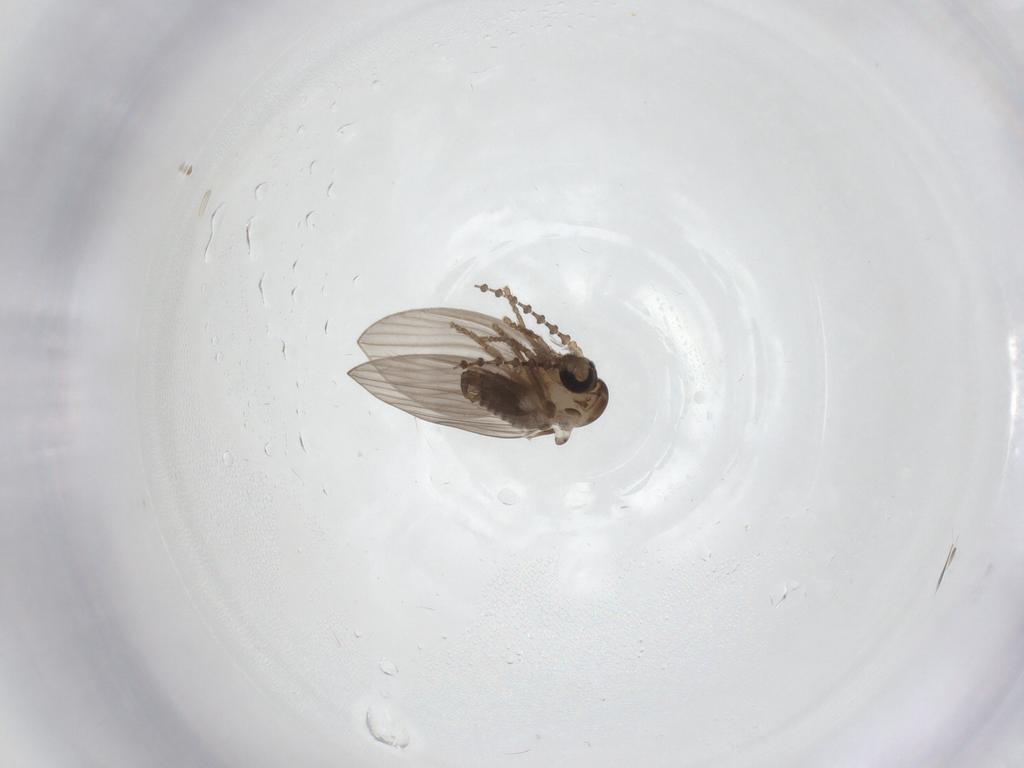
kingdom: Animalia
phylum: Arthropoda
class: Insecta
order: Diptera
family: Psychodidae
